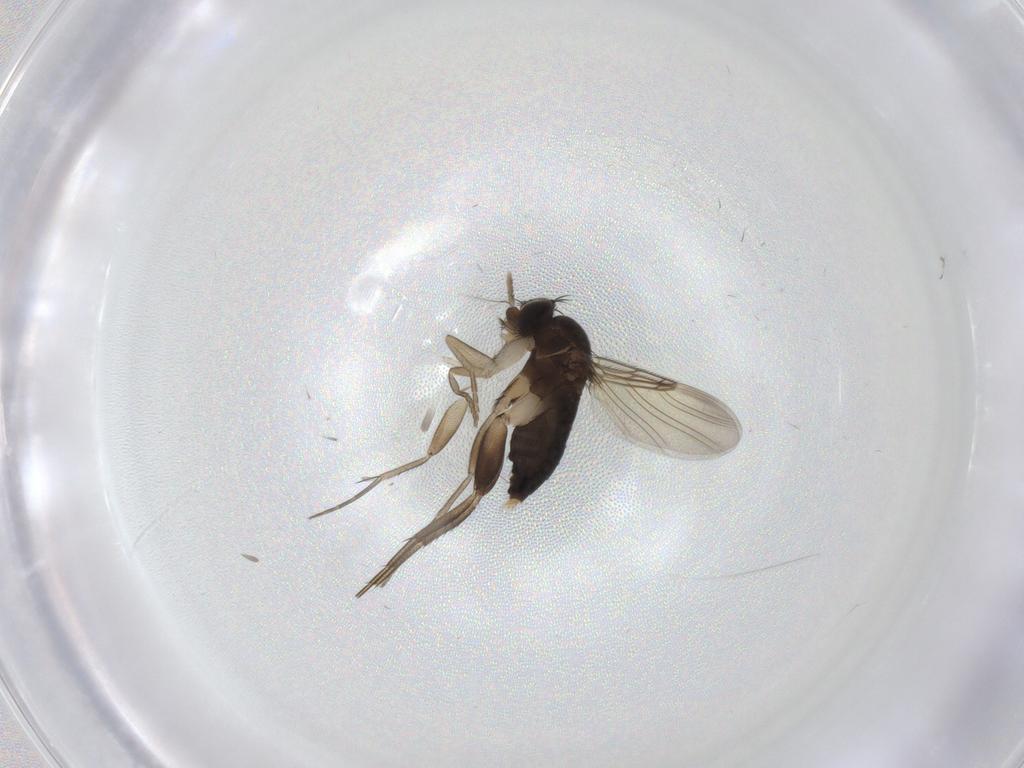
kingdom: Animalia
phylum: Arthropoda
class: Insecta
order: Diptera
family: Phoridae
